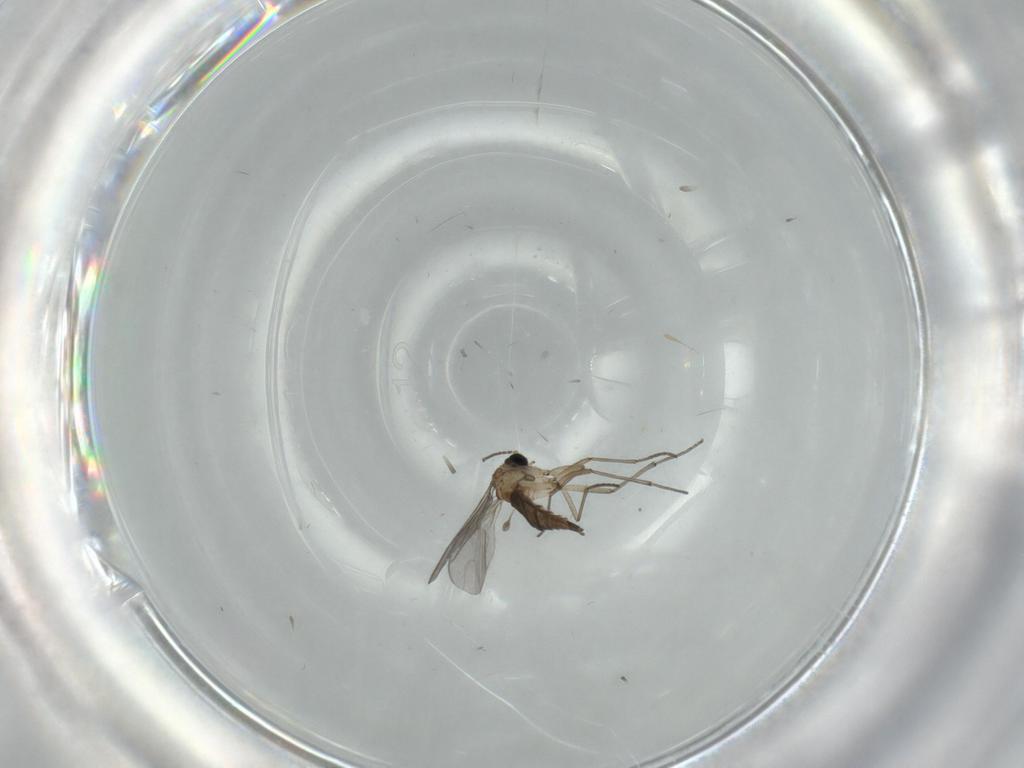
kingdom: Animalia
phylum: Arthropoda
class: Insecta
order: Diptera
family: Sciaridae
